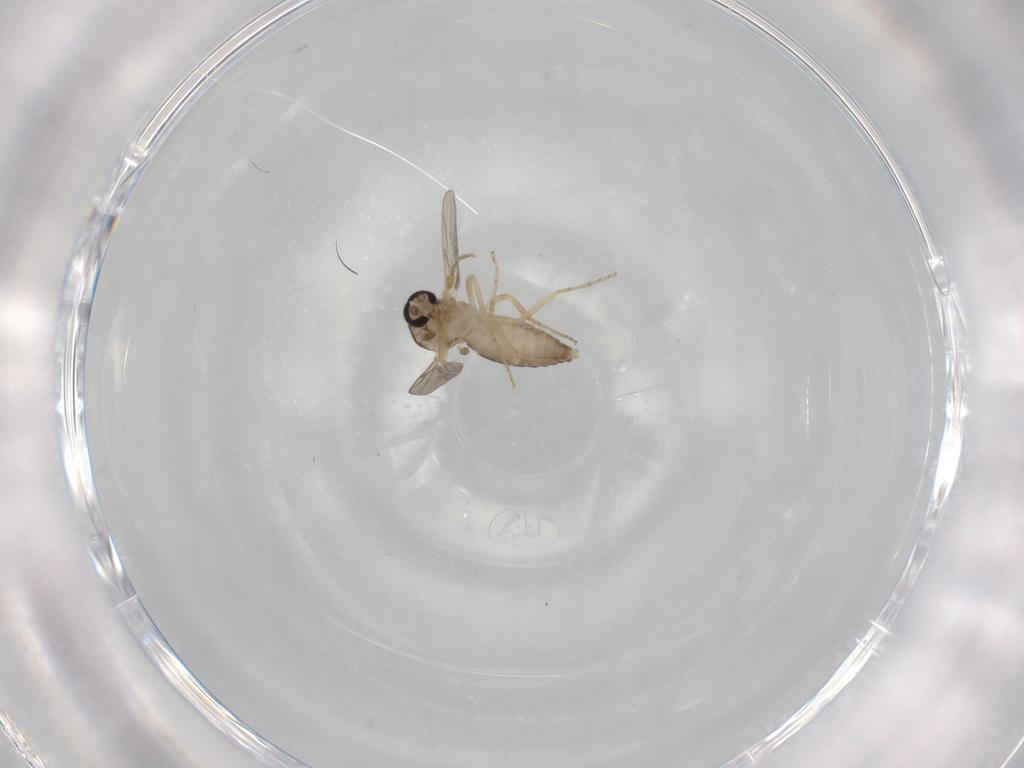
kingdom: Animalia
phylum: Arthropoda
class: Insecta
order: Diptera
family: Ceratopogonidae
